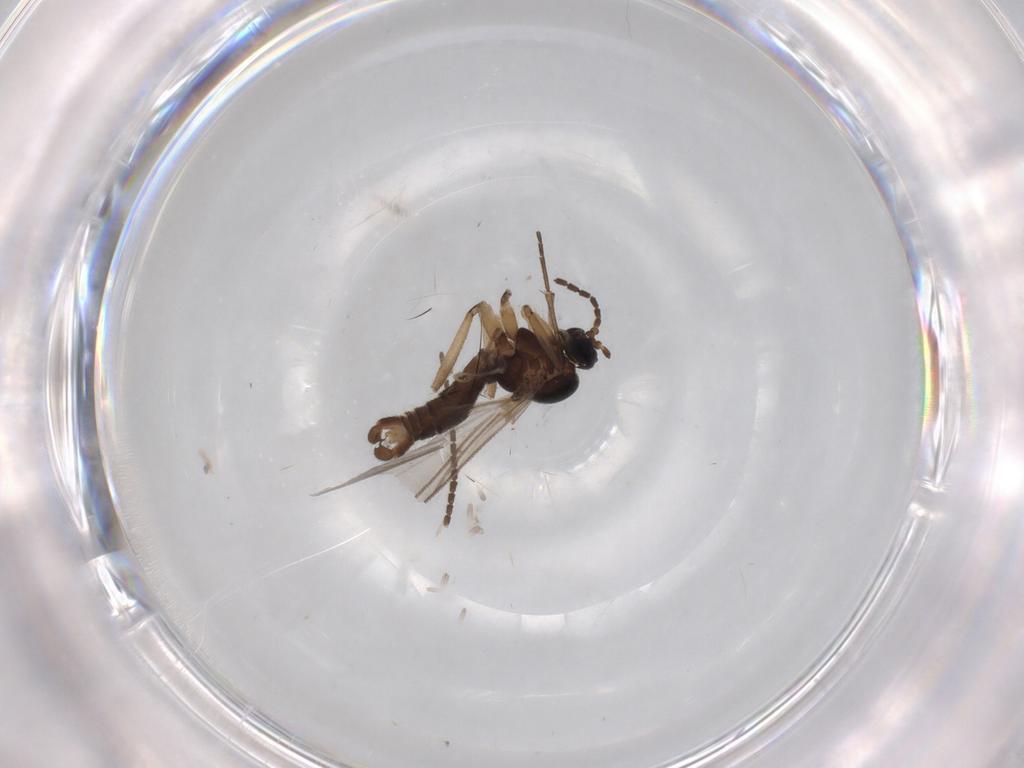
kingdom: Animalia
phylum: Arthropoda
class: Insecta
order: Diptera
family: Sciaridae
